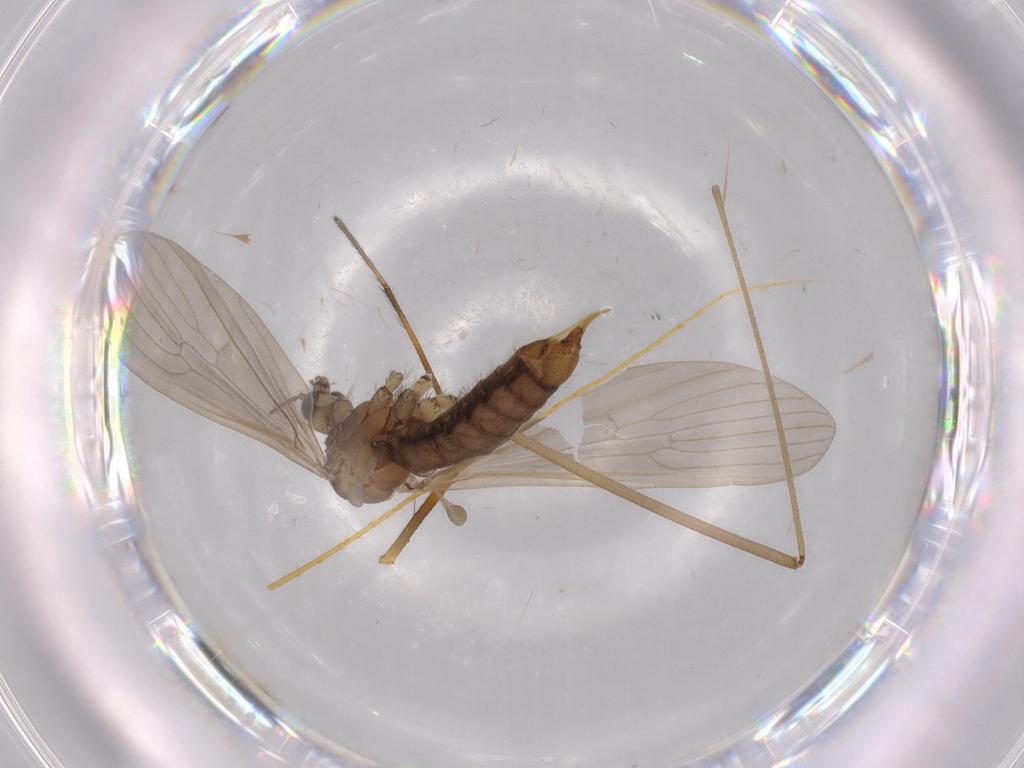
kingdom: Animalia
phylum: Arthropoda
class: Insecta
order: Diptera
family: Limoniidae
